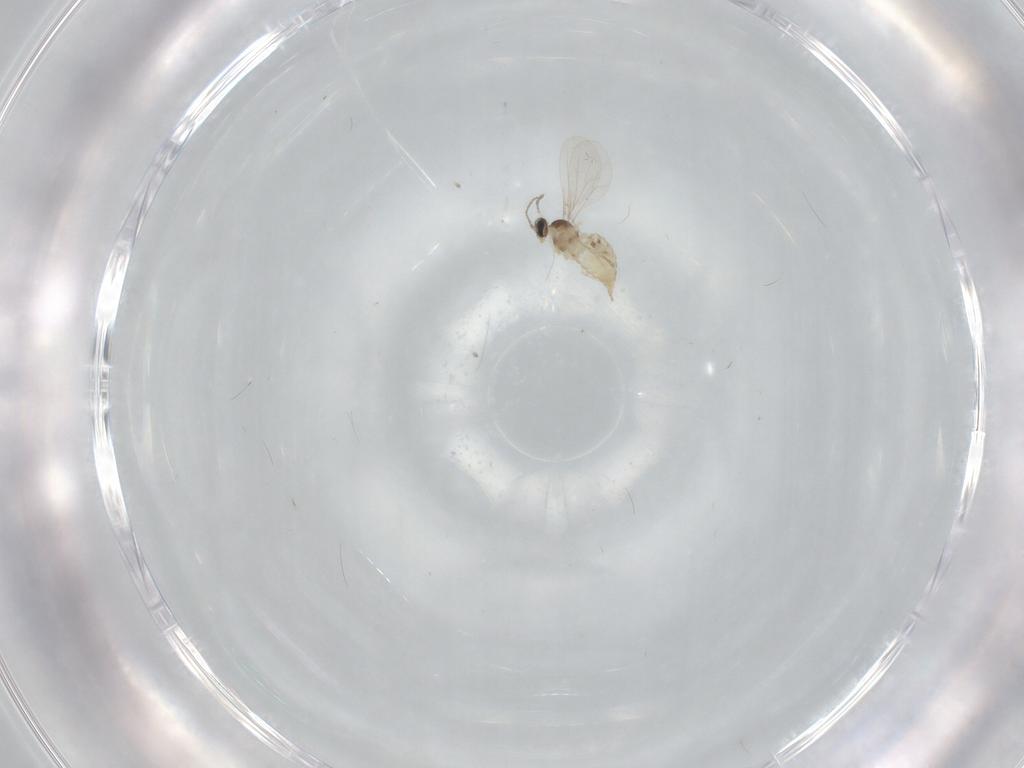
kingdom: Animalia
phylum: Arthropoda
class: Insecta
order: Diptera
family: Cecidomyiidae
